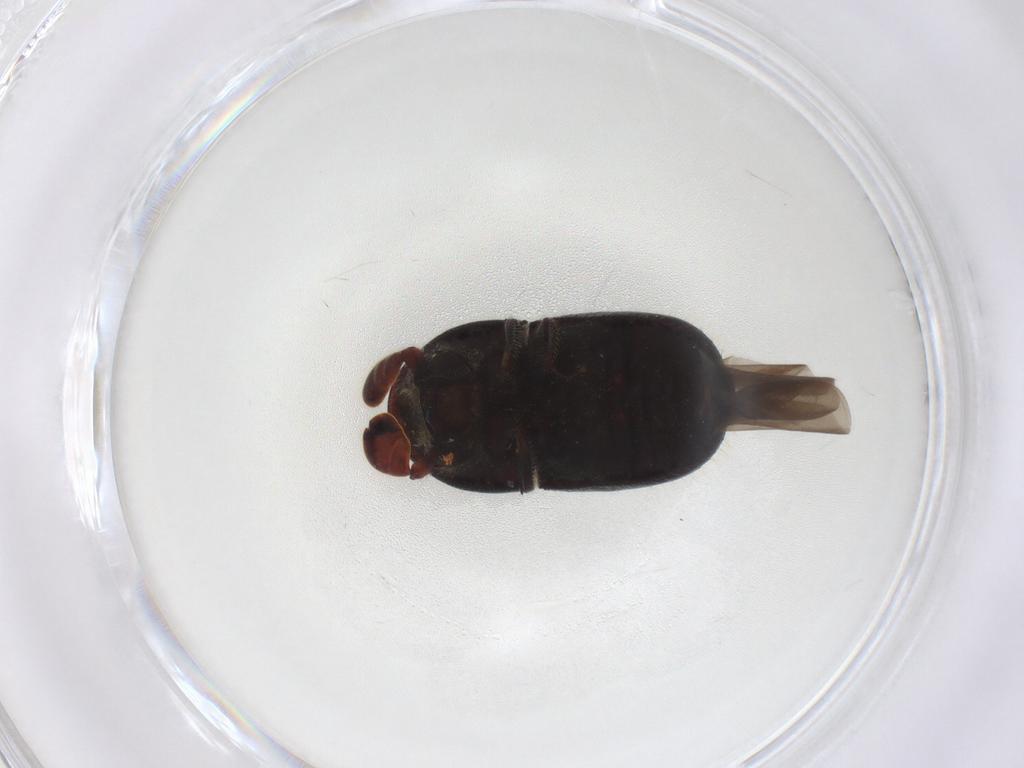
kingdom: Animalia
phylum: Arthropoda
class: Insecta
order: Coleoptera
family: Curculionidae
